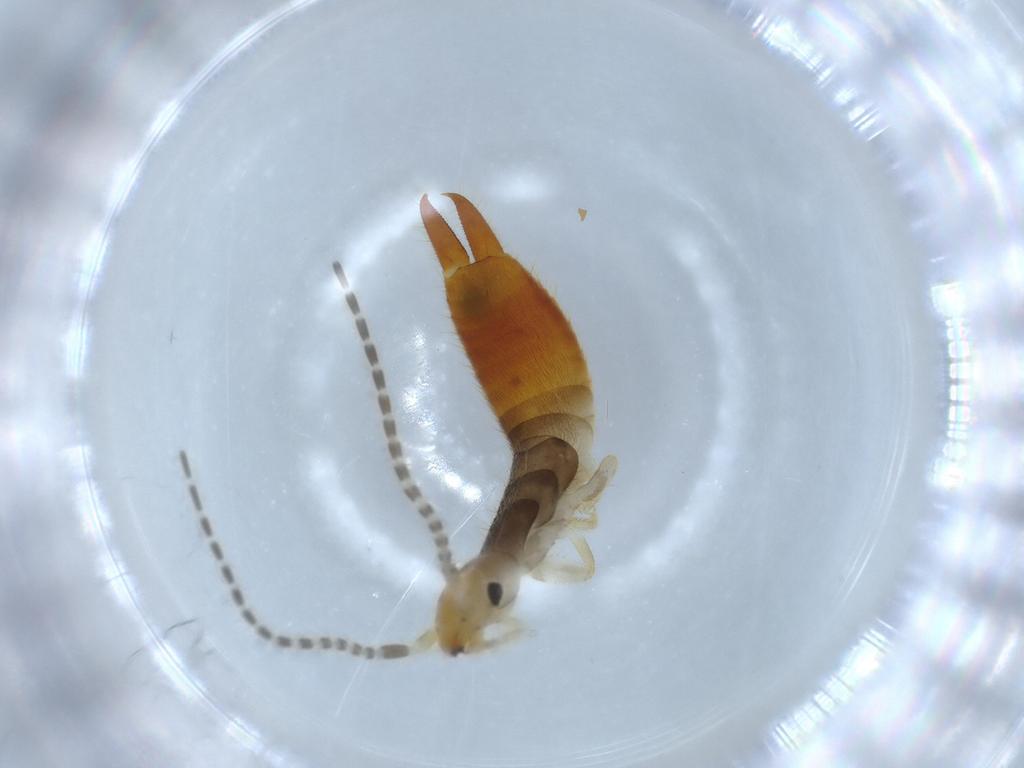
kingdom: Animalia
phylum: Arthropoda
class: Insecta
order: Dermaptera
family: Forficulidae
